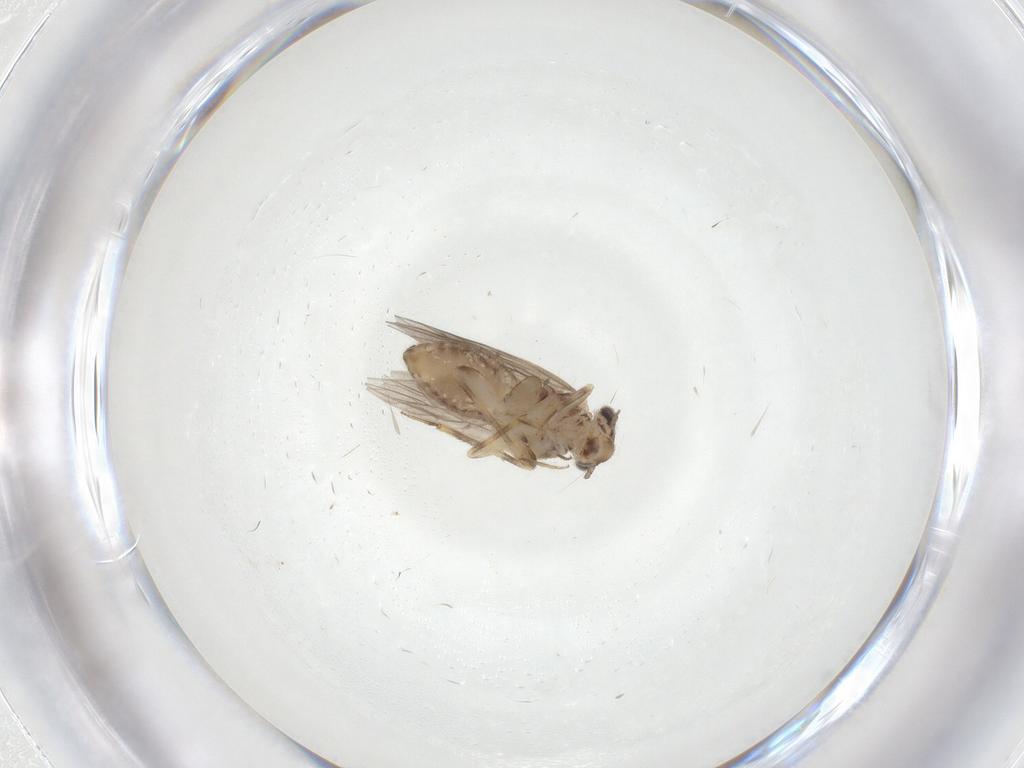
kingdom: Animalia
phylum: Arthropoda
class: Insecta
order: Psocodea
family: Lepidopsocidae
